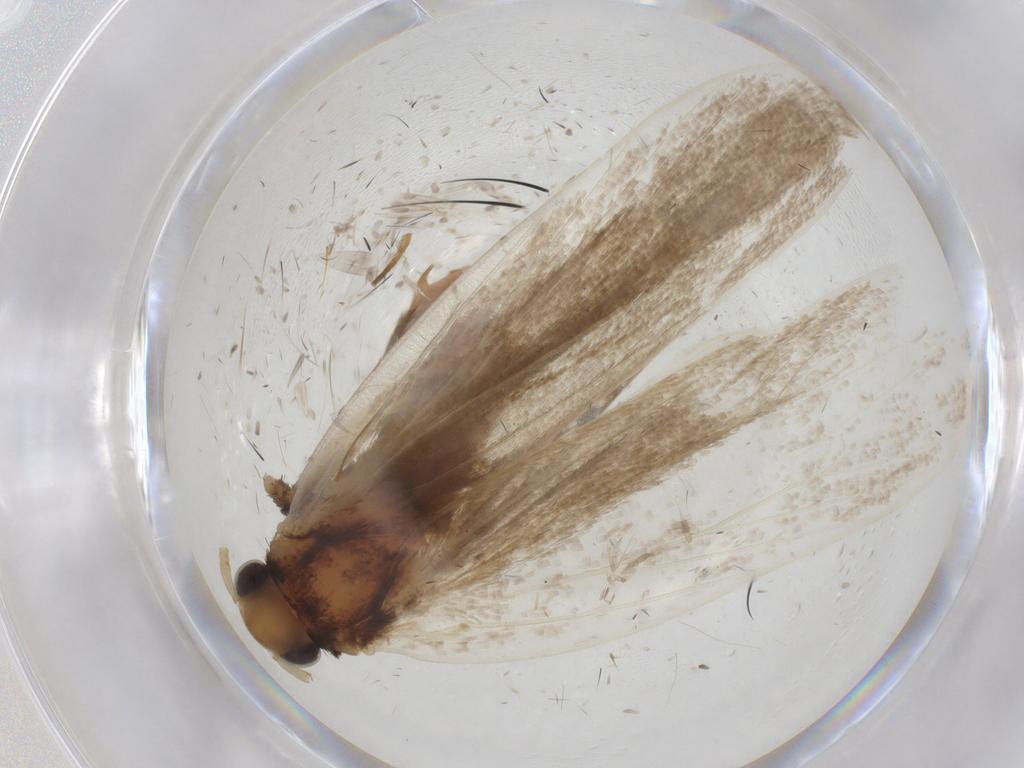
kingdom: Animalia
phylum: Arthropoda
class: Insecta
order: Lepidoptera
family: Lecithoceridae
